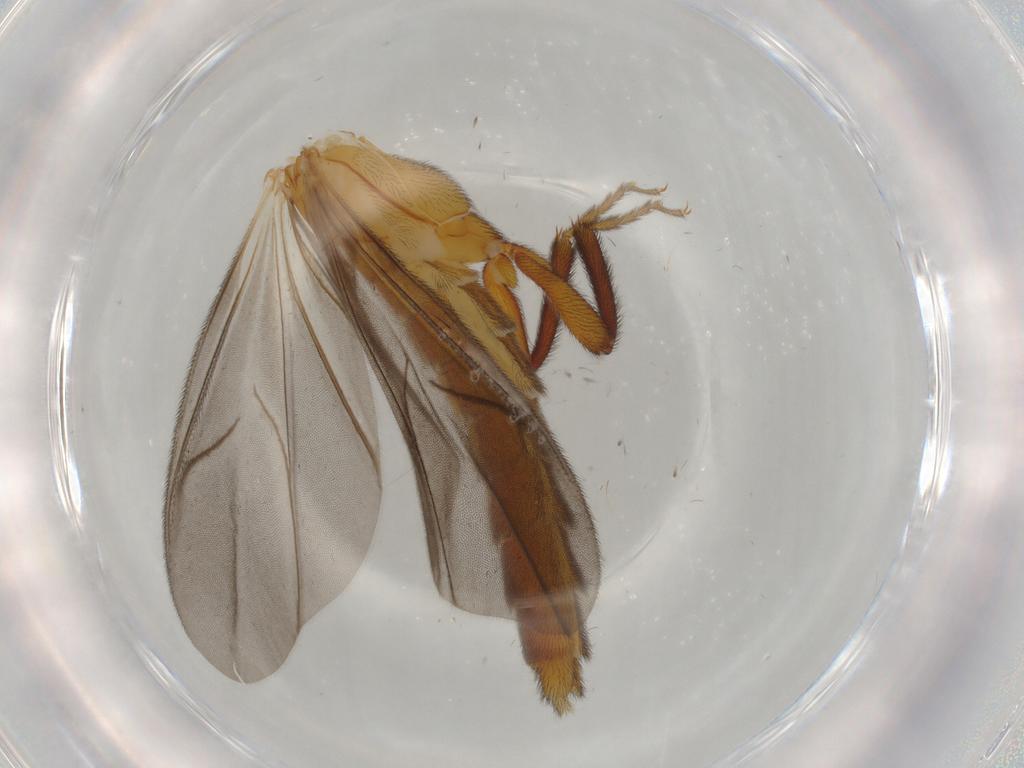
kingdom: Animalia
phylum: Arthropoda
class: Insecta
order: Coleoptera
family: Omethidae
